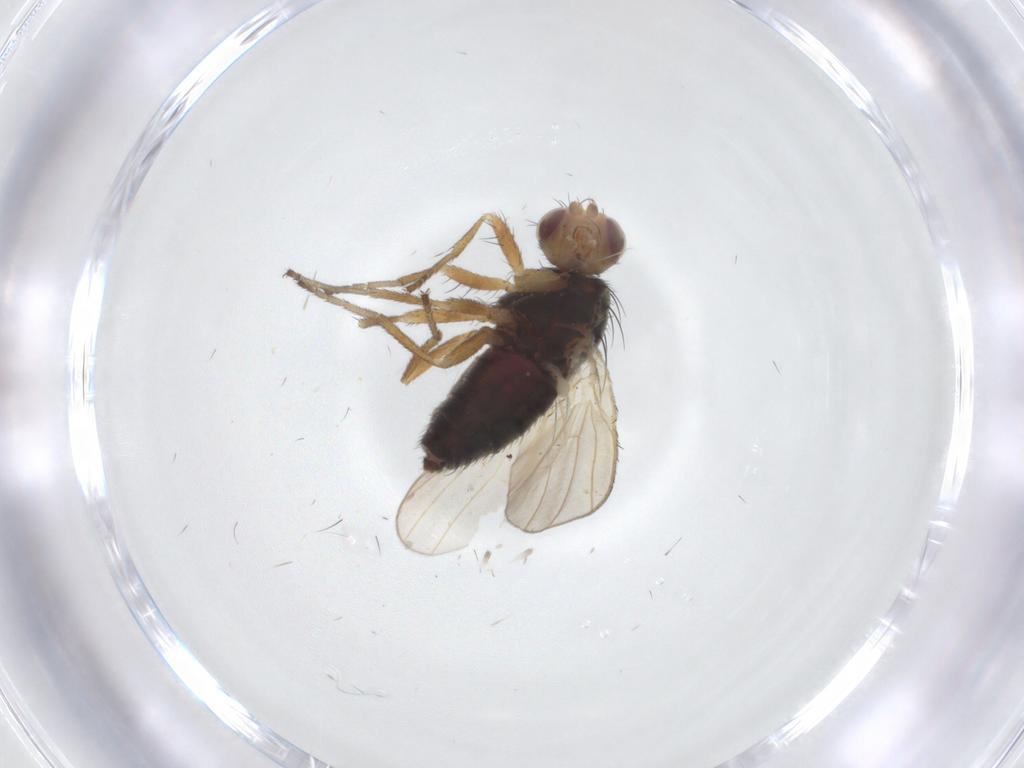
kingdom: Animalia
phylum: Arthropoda
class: Insecta
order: Diptera
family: Heleomyzidae
